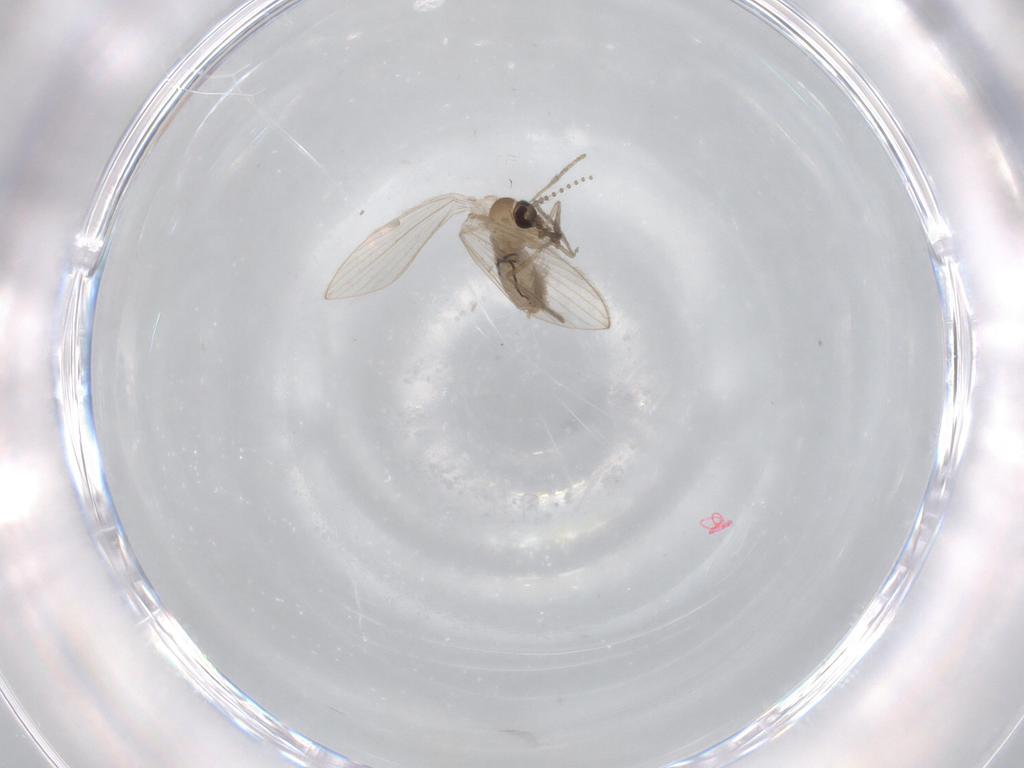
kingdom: Animalia
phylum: Arthropoda
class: Insecta
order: Diptera
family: Psychodidae
